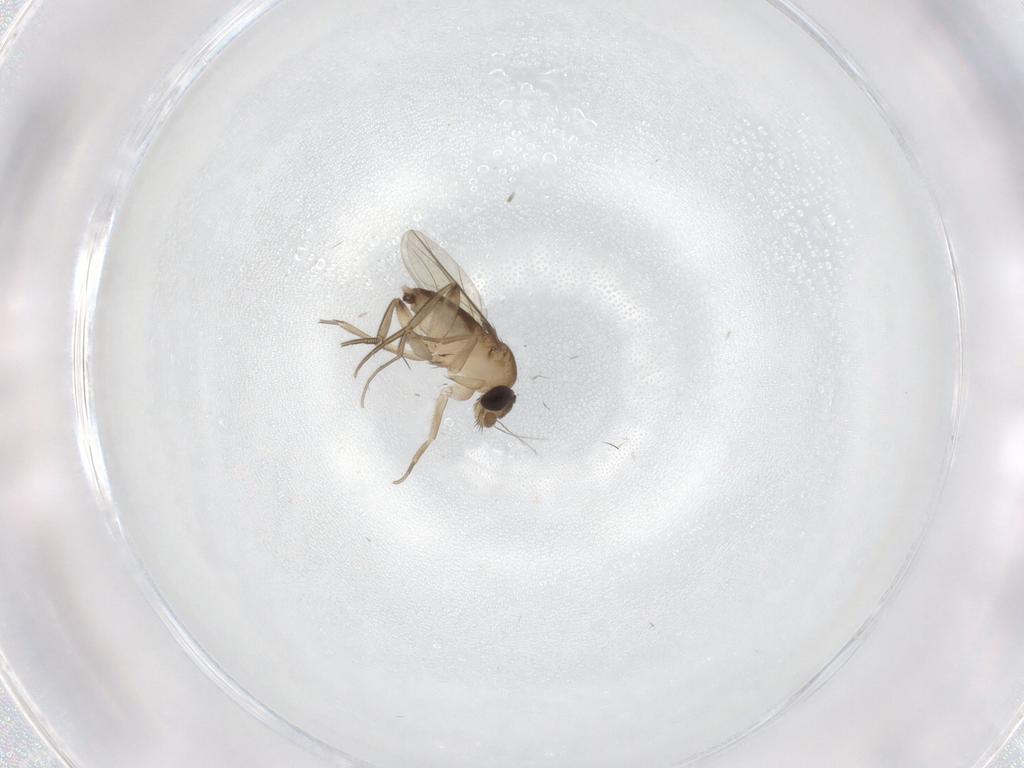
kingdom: Animalia
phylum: Arthropoda
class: Insecta
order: Diptera
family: Phoridae
